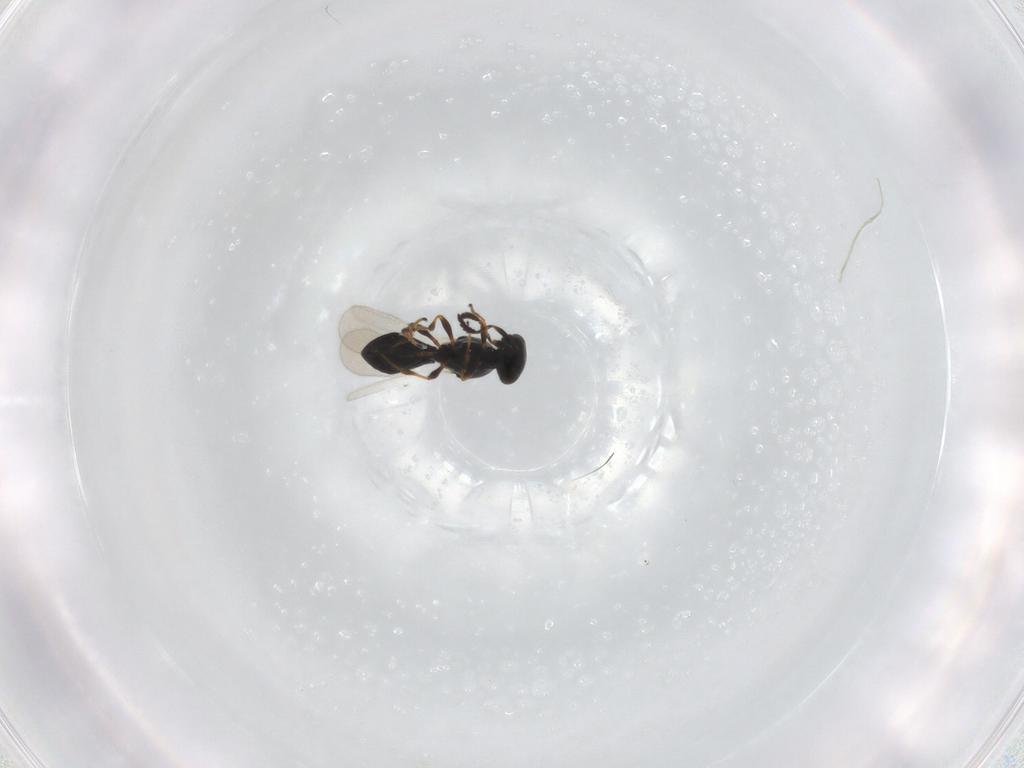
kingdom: Animalia
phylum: Arthropoda
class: Insecta
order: Hymenoptera
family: Platygastridae
